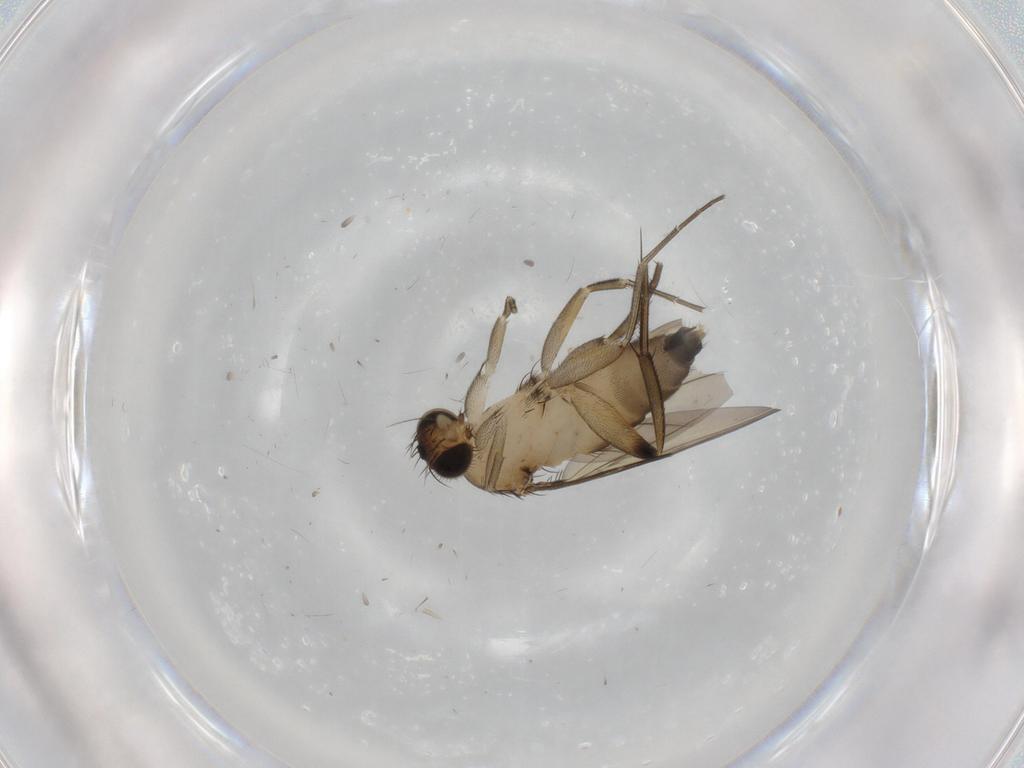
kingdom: Animalia
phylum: Arthropoda
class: Insecta
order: Diptera
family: Phoridae
